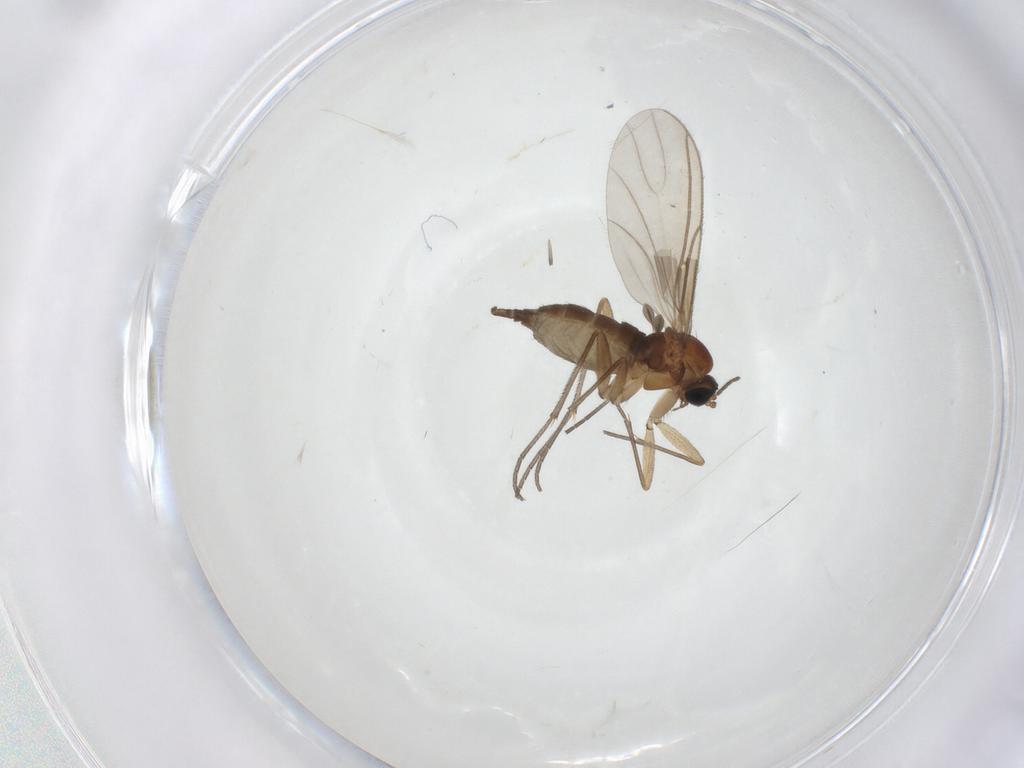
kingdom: Animalia
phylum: Arthropoda
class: Insecta
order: Diptera
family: Sciaridae
